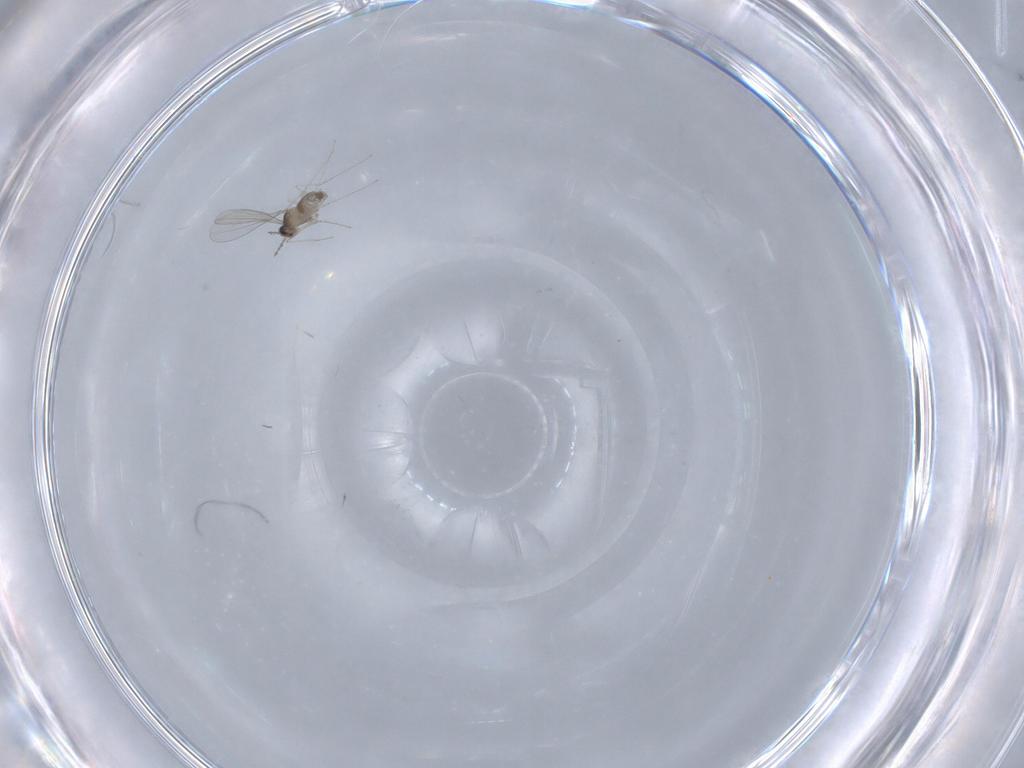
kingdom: Animalia
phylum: Arthropoda
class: Insecta
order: Diptera
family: Cecidomyiidae
